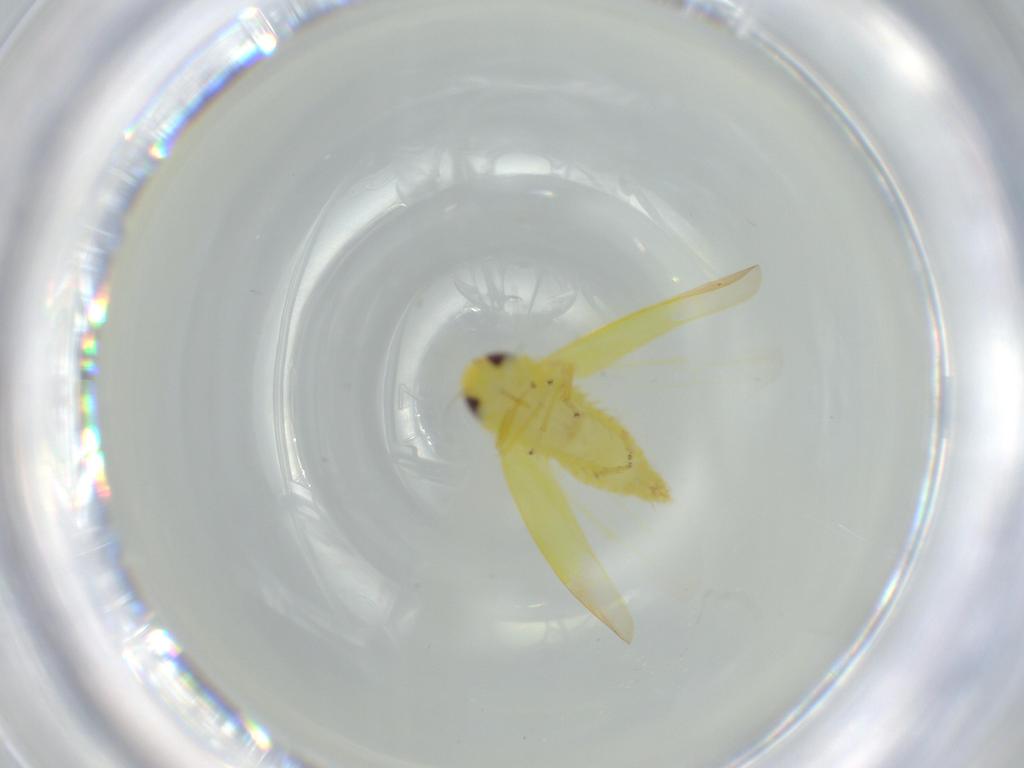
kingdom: Animalia
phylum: Arthropoda
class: Insecta
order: Hemiptera
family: Cicadellidae
